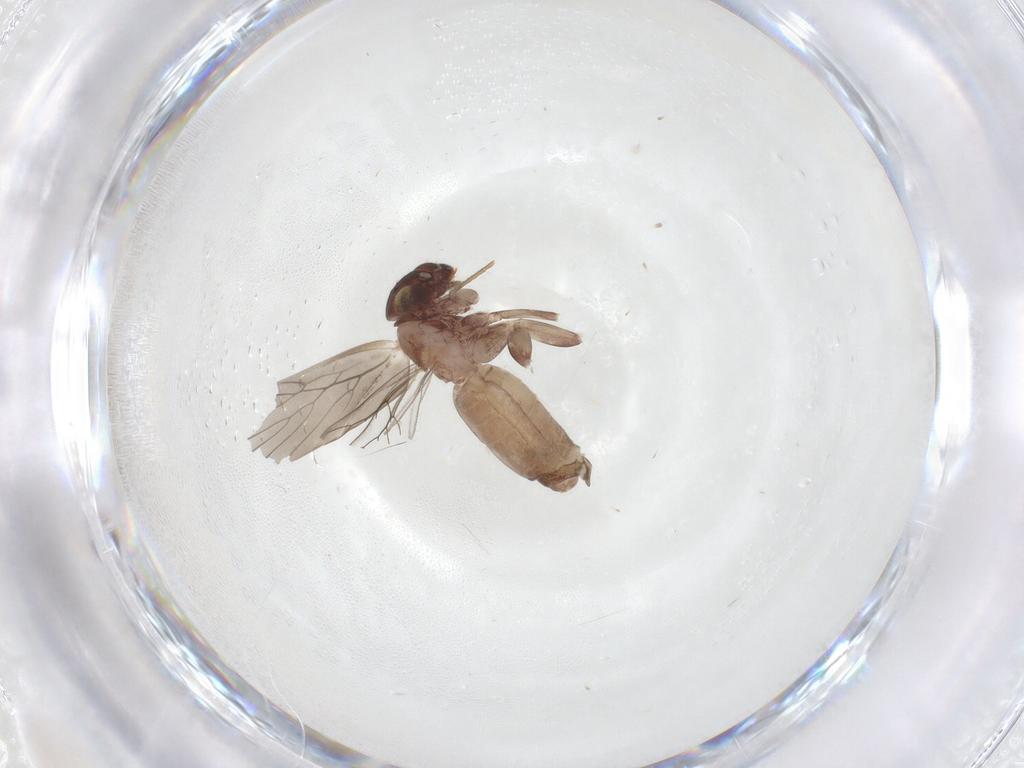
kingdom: Animalia
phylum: Arthropoda
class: Insecta
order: Psocodea
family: Lepidopsocidae
